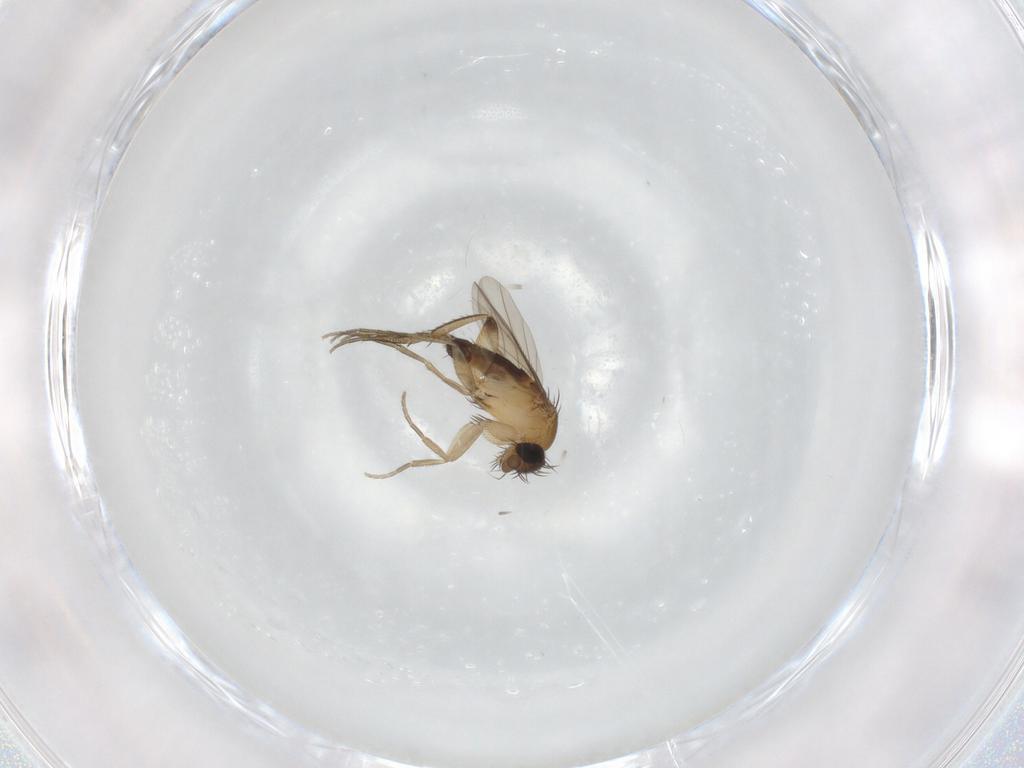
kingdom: Animalia
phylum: Arthropoda
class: Insecta
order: Diptera
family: Phoridae
